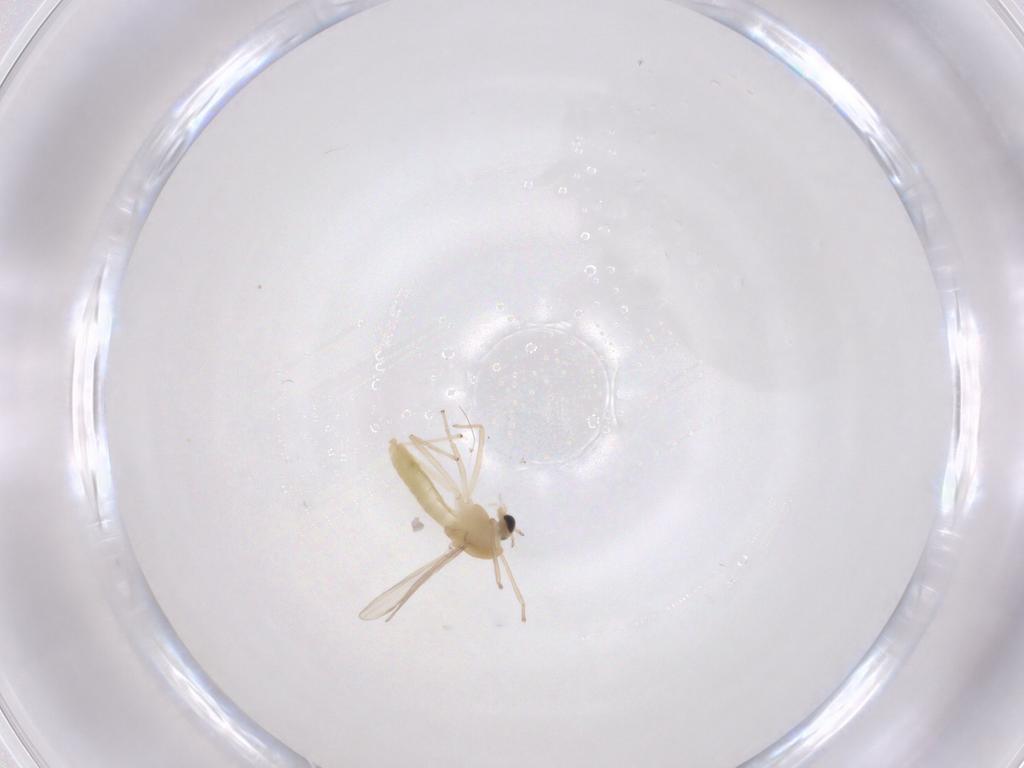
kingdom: Animalia
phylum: Arthropoda
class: Insecta
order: Diptera
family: Chironomidae
